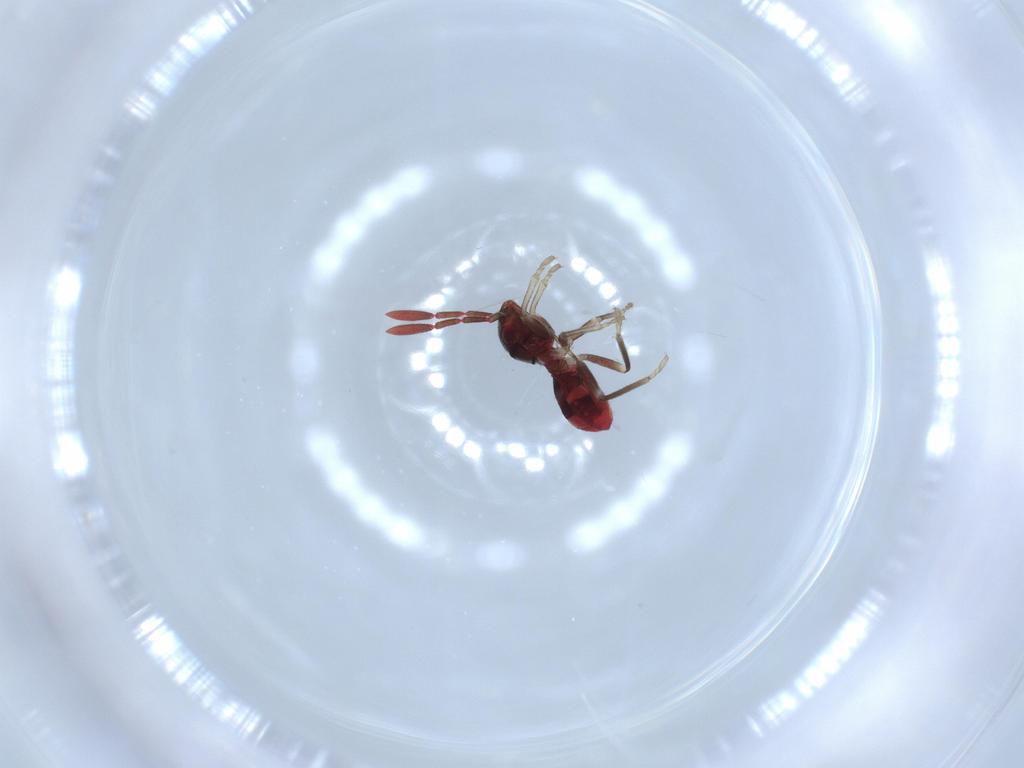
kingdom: Animalia
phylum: Arthropoda
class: Insecta
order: Hemiptera
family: Rhyparochromidae
